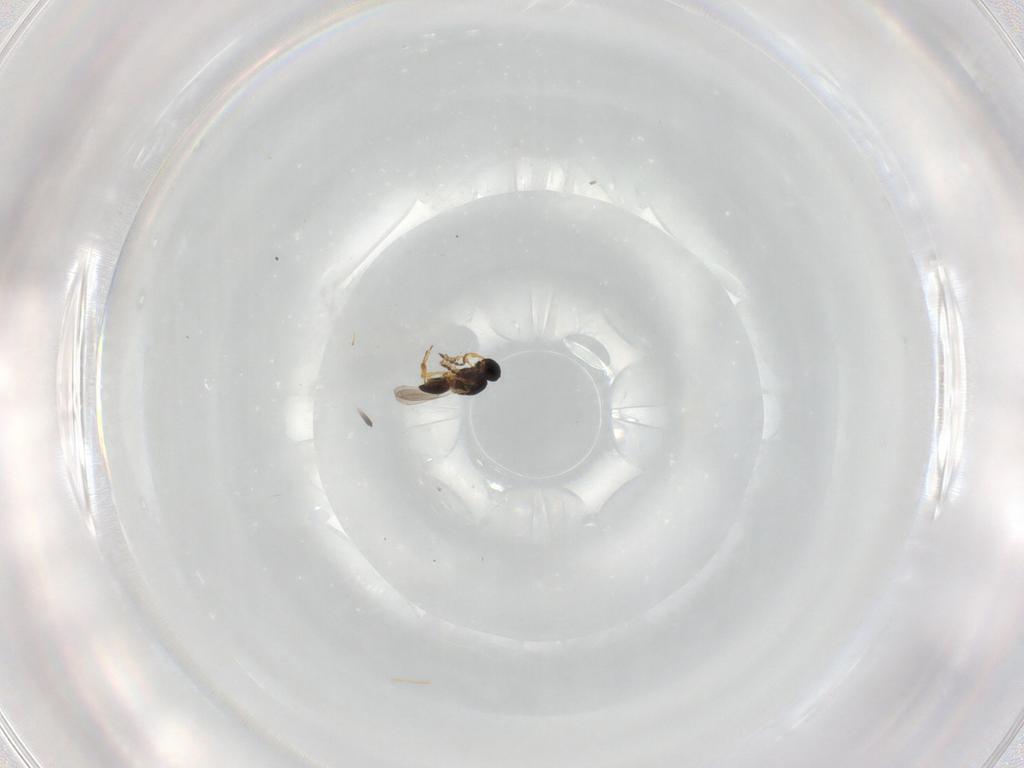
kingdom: Animalia
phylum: Arthropoda
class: Insecta
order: Hymenoptera
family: Platygastridae
